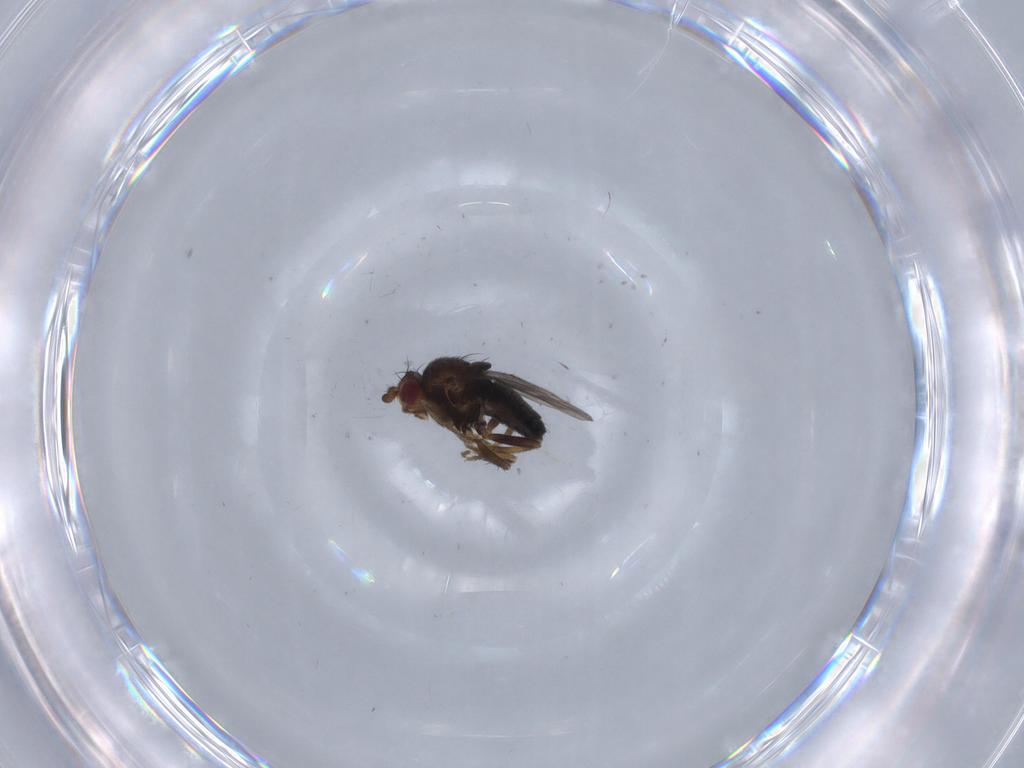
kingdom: Animalia
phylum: Arthropoda
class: Insecta
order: Diptera
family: Sphaeroceridae
